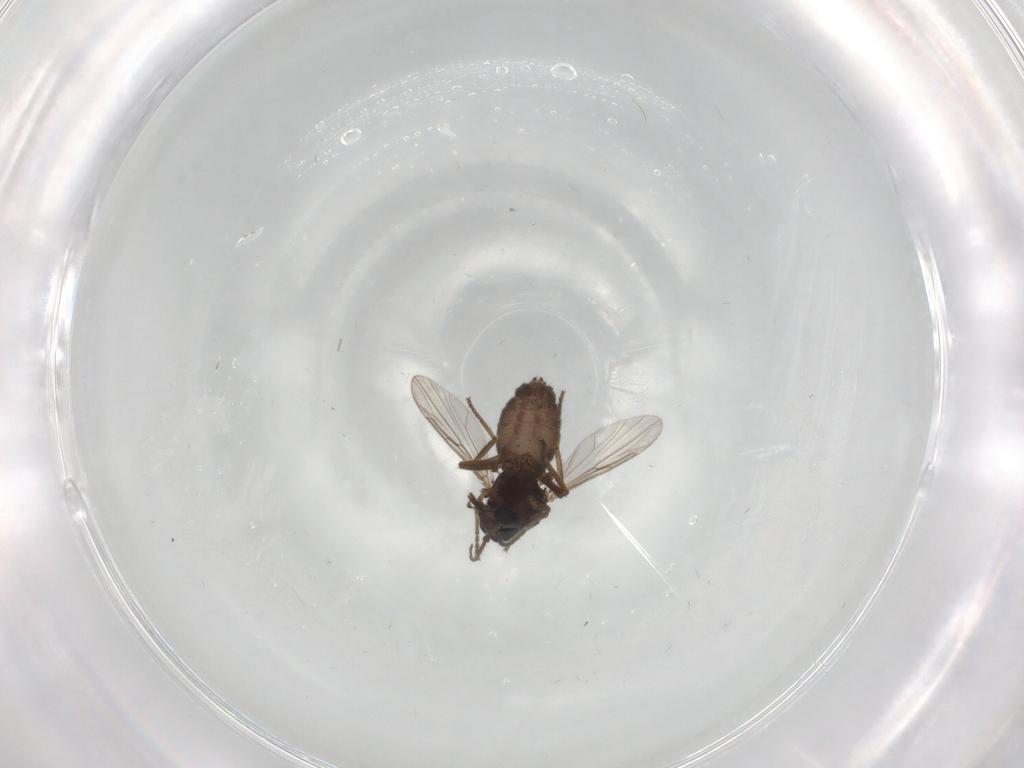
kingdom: Animalia
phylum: Arthropoda
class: Insecta
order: Diptera
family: Ceratopogonidae
